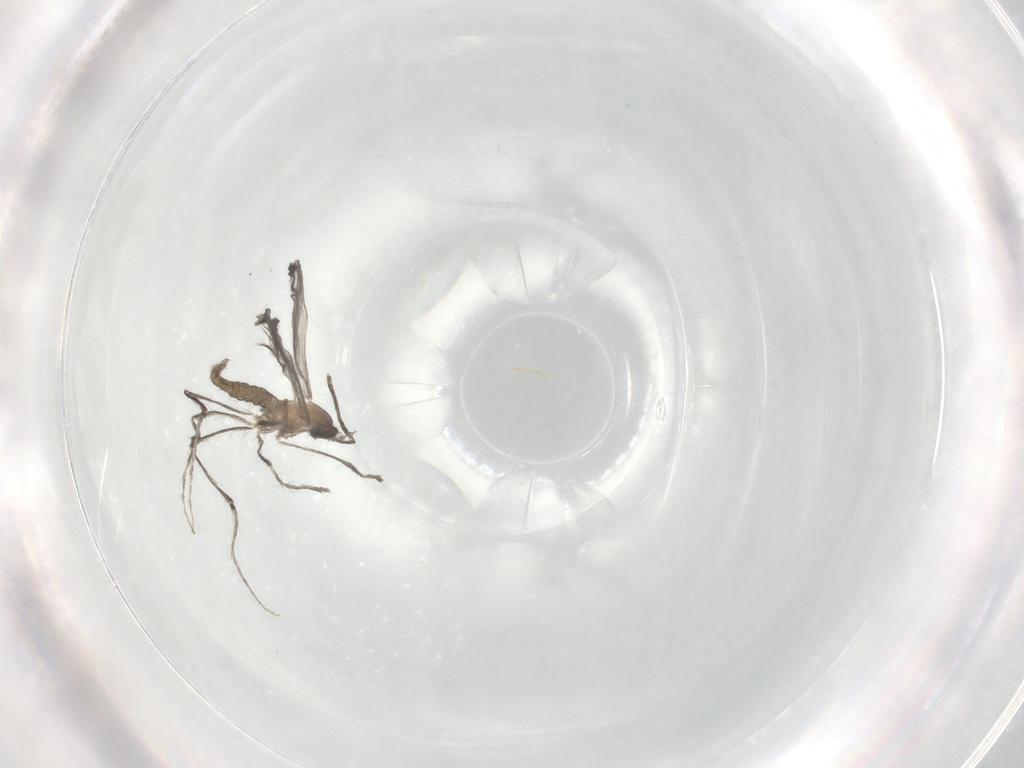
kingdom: Animalia
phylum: Arthropoda
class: Insecta
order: Diptera
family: Cecidomyiidae
